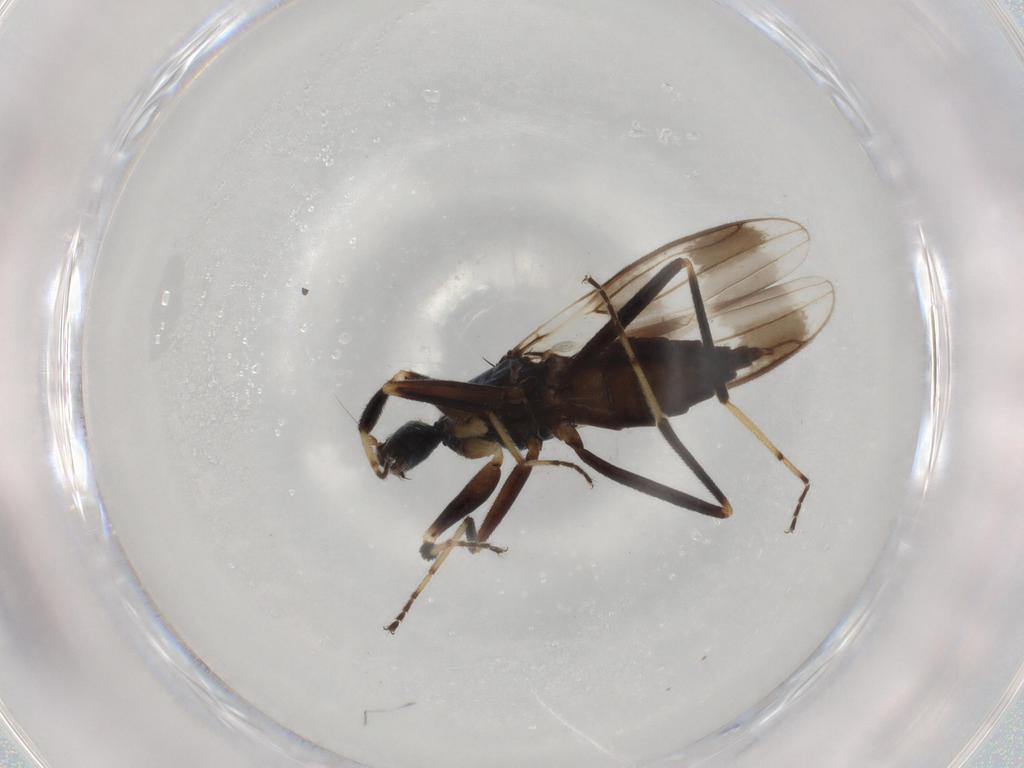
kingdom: Animalia
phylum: Arthropoda
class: Insecta
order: Diptera
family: Hybotidae
